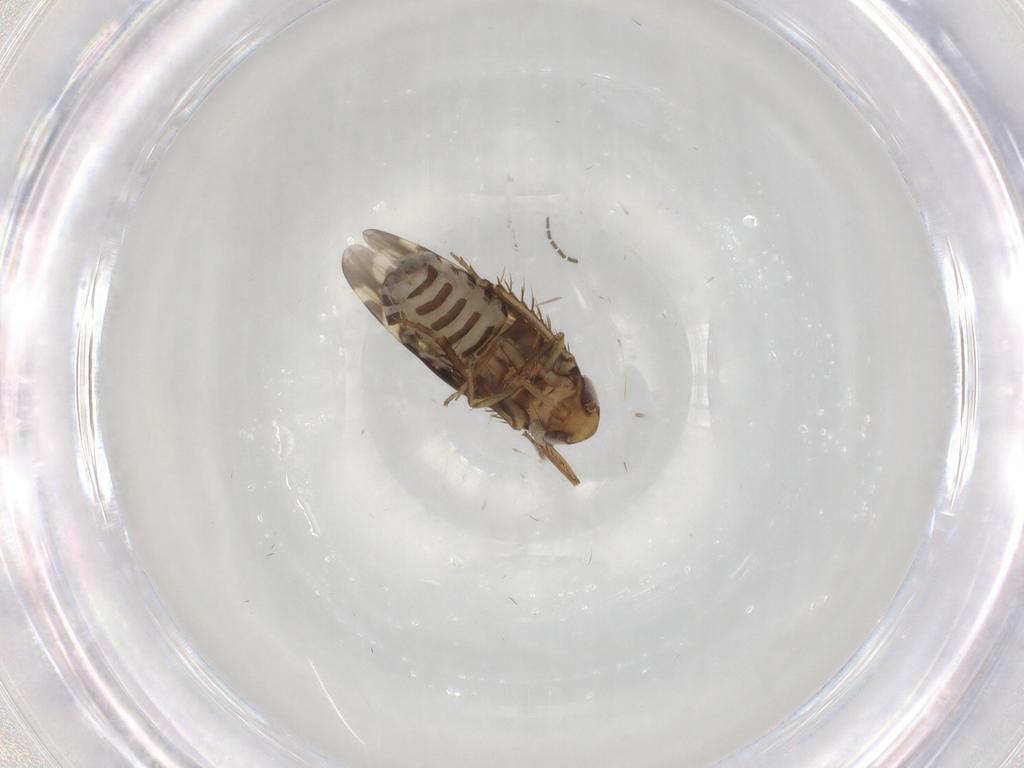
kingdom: Animalia
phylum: Arthropoda
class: Insecta
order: Hemiptera
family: Cicadellidae
